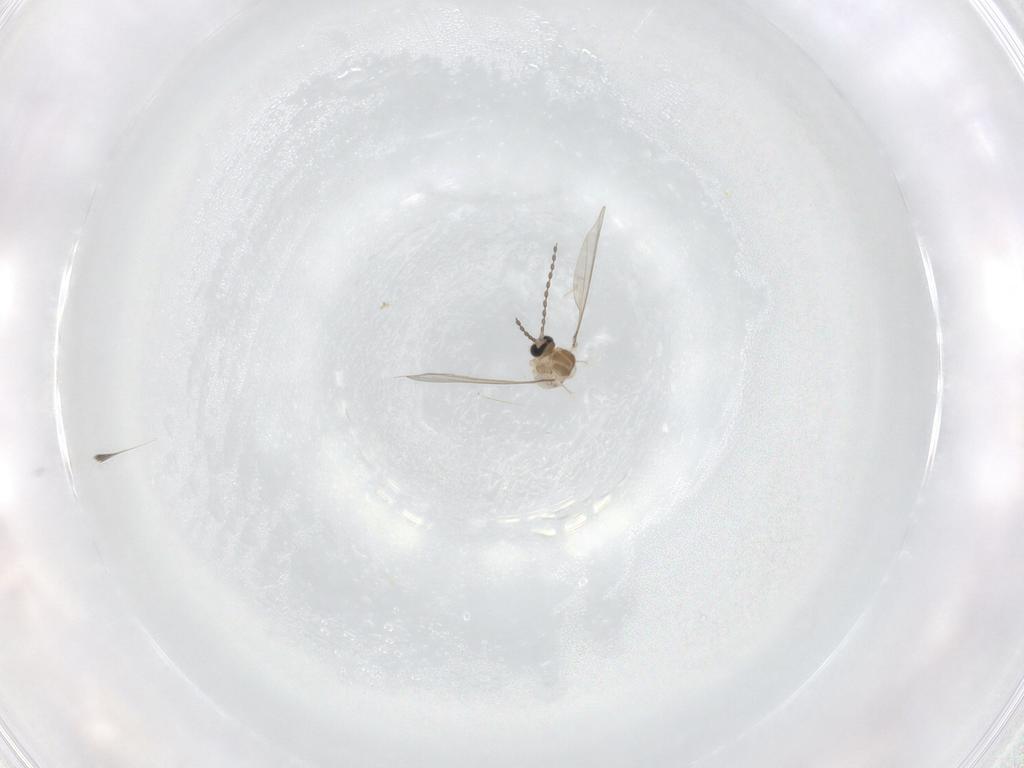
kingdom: Animalia
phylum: Arthropoda
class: Insecta
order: Diptera
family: Cecidomyiidae
